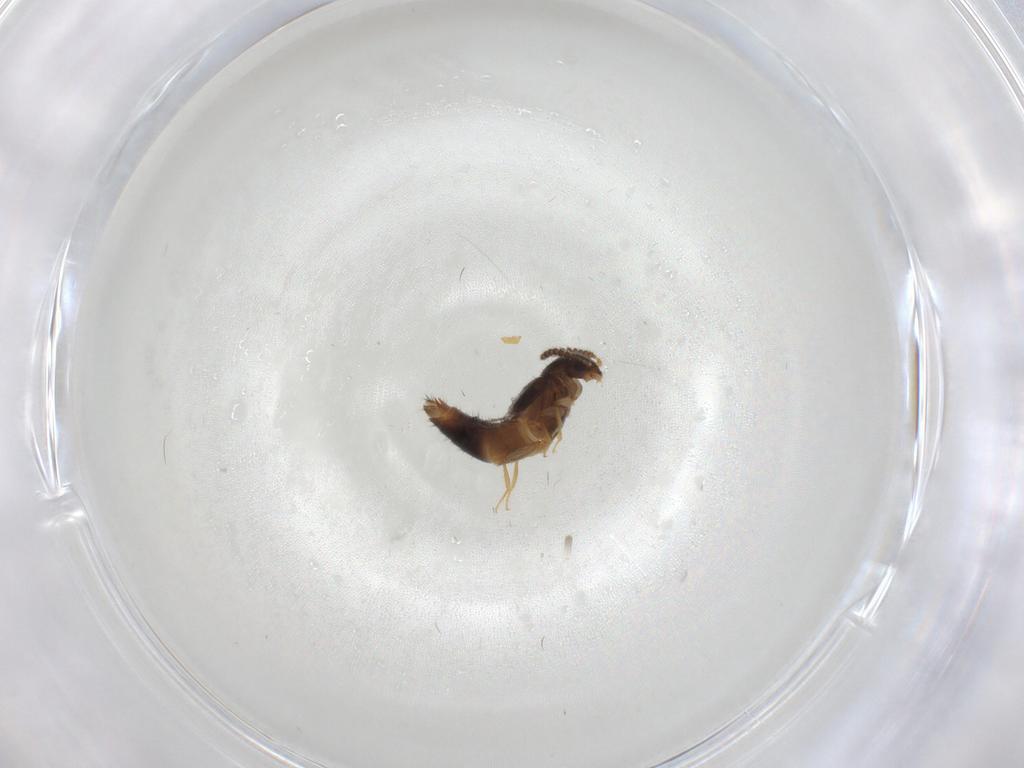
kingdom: Animalia
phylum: Arthropoda
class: Insecta
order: Coleoptera
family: Staphylinidae
